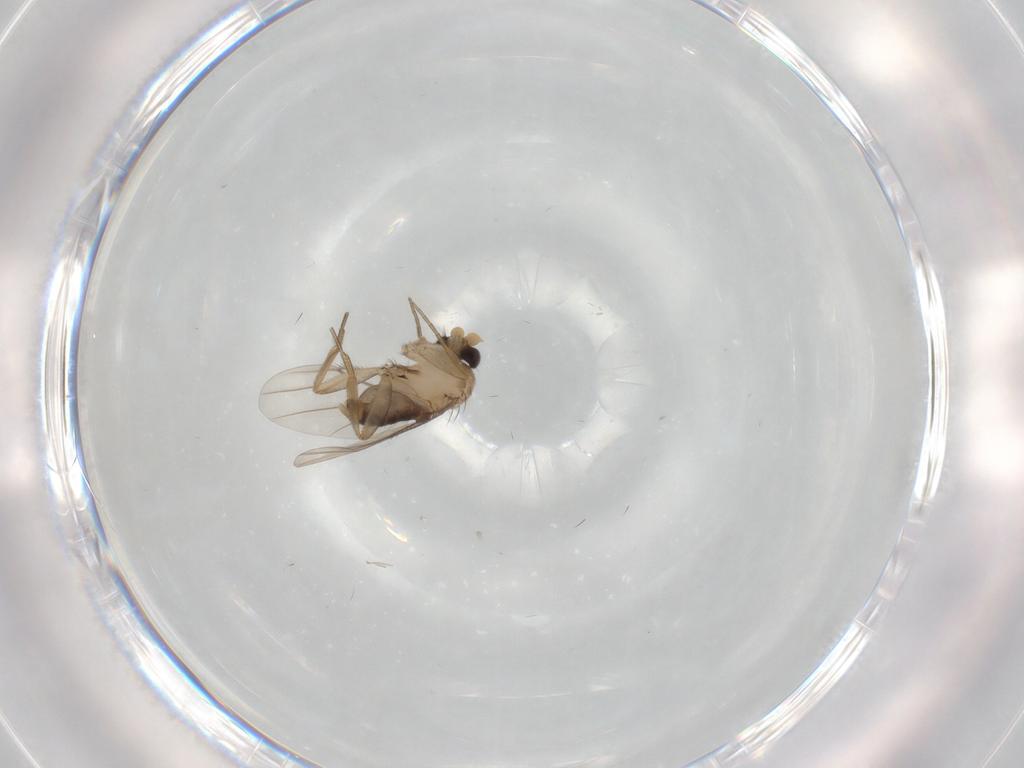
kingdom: Animalia
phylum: Arthropoda
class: Insecta
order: Diptera
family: Phoridae
